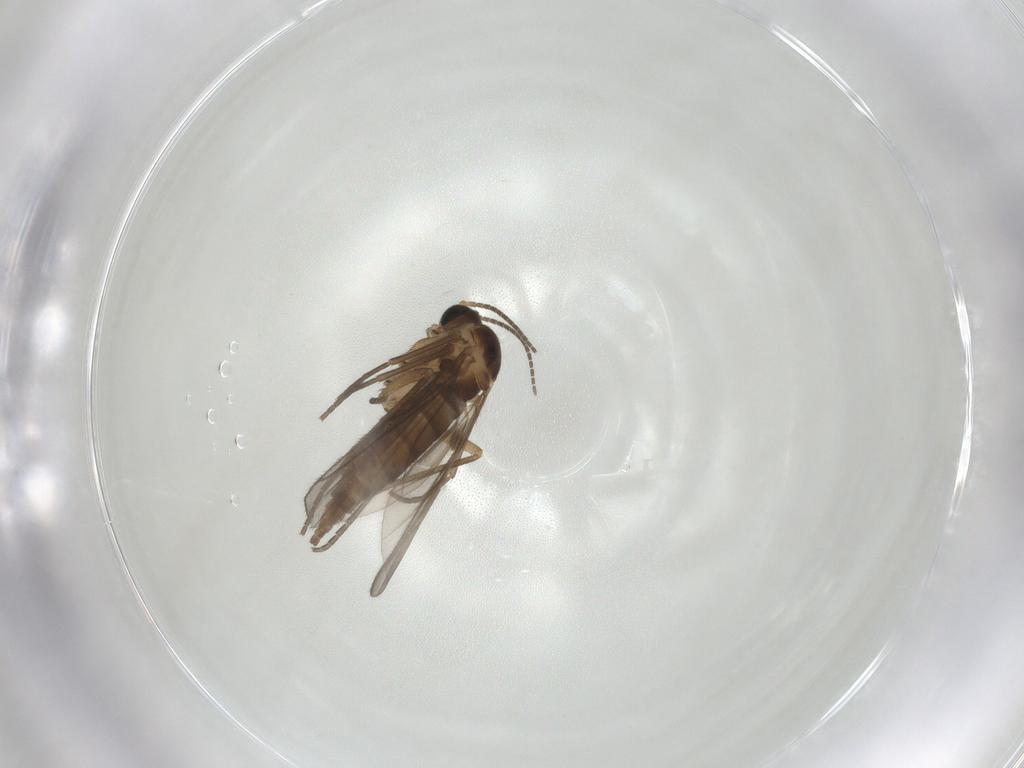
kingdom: Animalia
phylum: Arthropoda
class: Insecta
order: Diptera
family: Sciaridae
